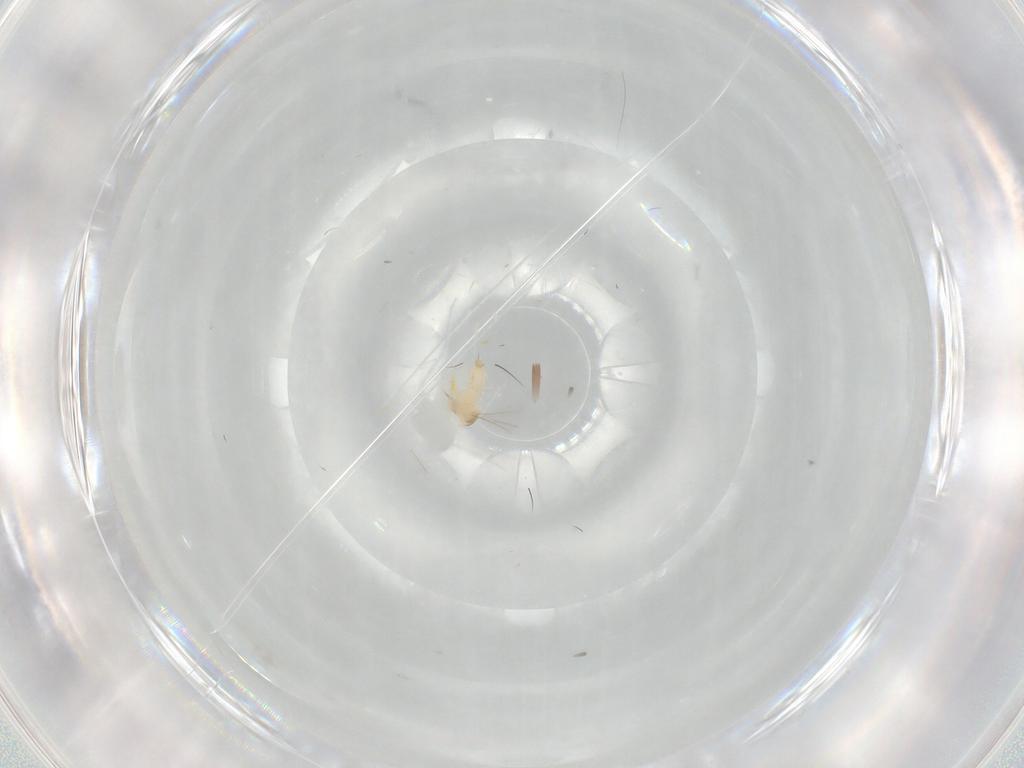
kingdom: Animalia
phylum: Arthropoda
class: Insecta
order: Diptera
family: Cecidomyiidae
